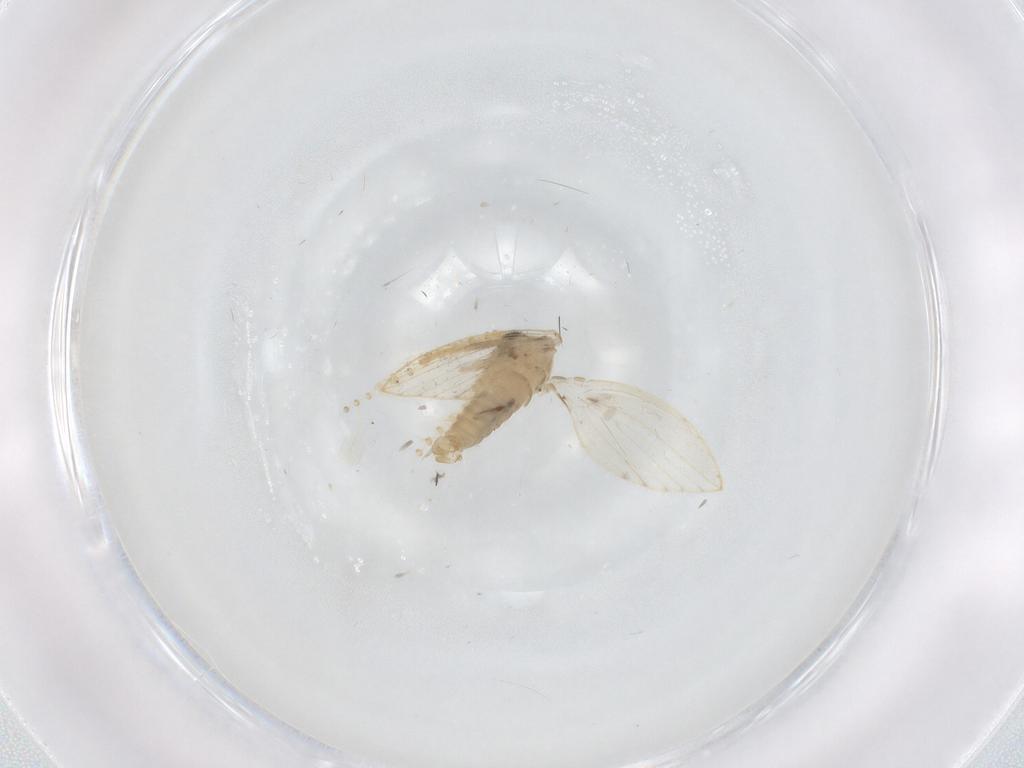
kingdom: Animalia
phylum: Arthropoda
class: Insecta
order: Diptera
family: Psychodidae
